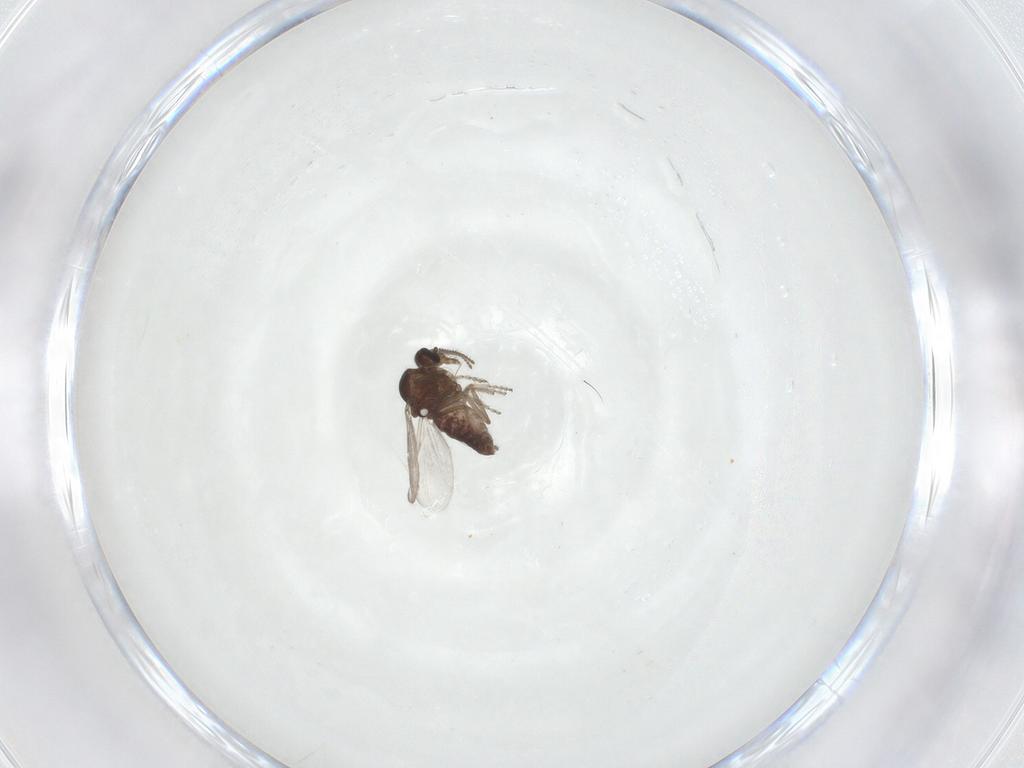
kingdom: Animalia
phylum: Arthropoda
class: Insecta
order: Diptera
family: Ceratopogonidae
